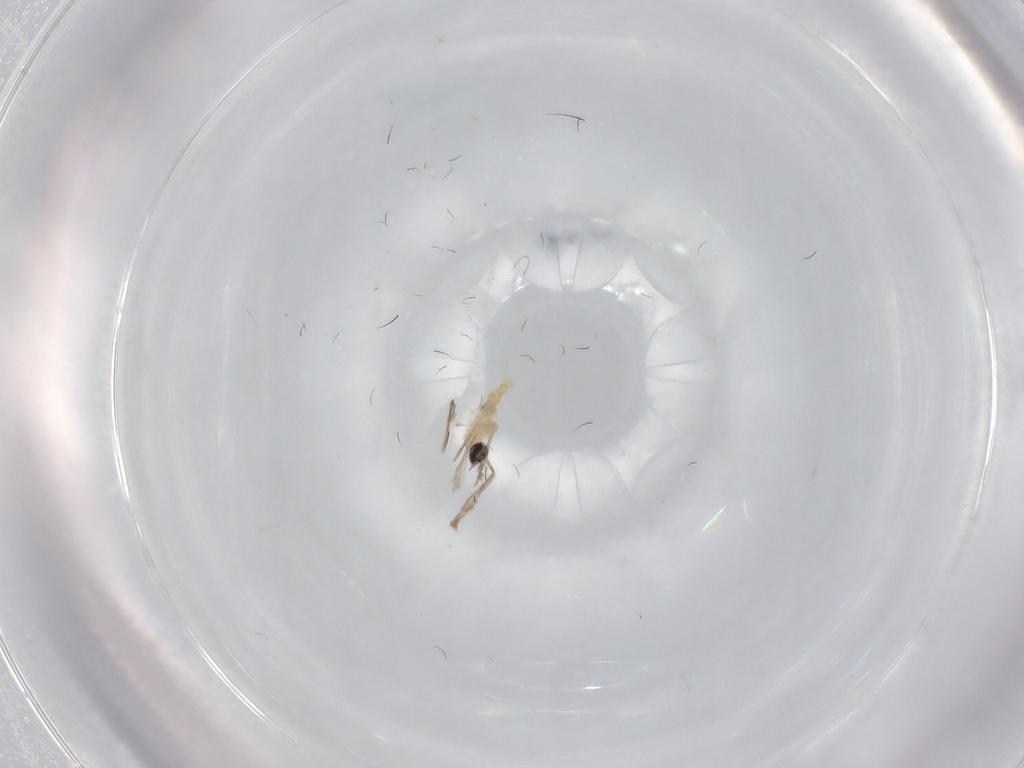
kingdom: Animalia
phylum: Arthropoda
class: Insecta
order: Diptera
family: Cecidomyiidae
